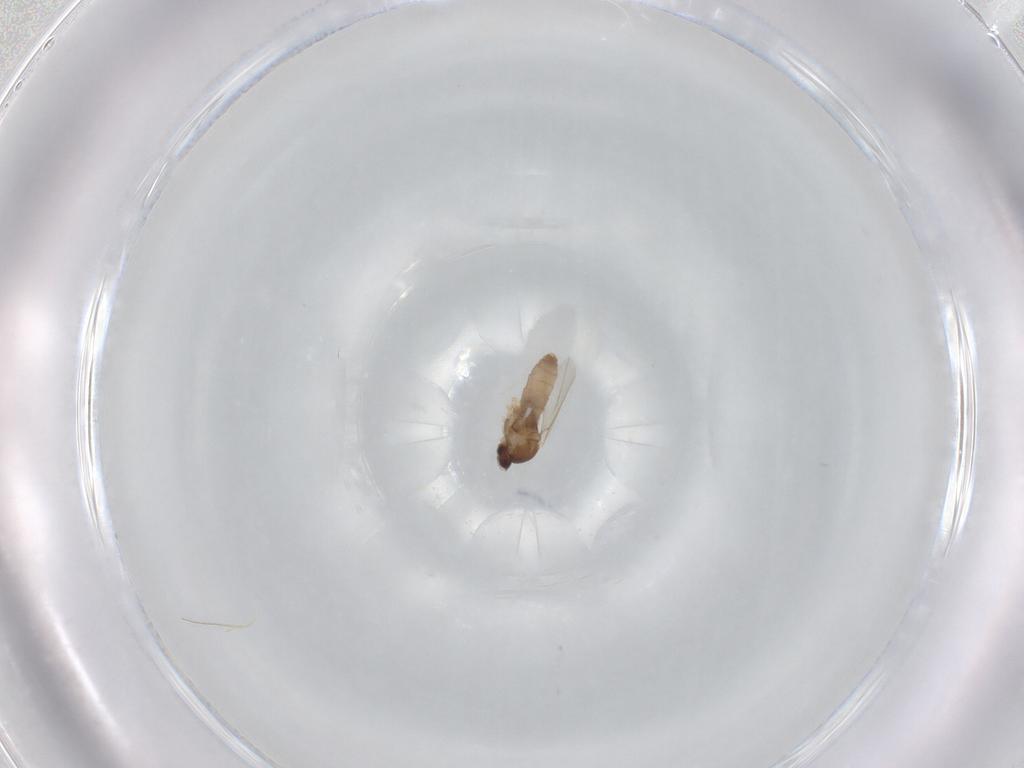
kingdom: Animalia
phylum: Arthropoda
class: Insecta
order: Diptera
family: Cecidomyiidae
